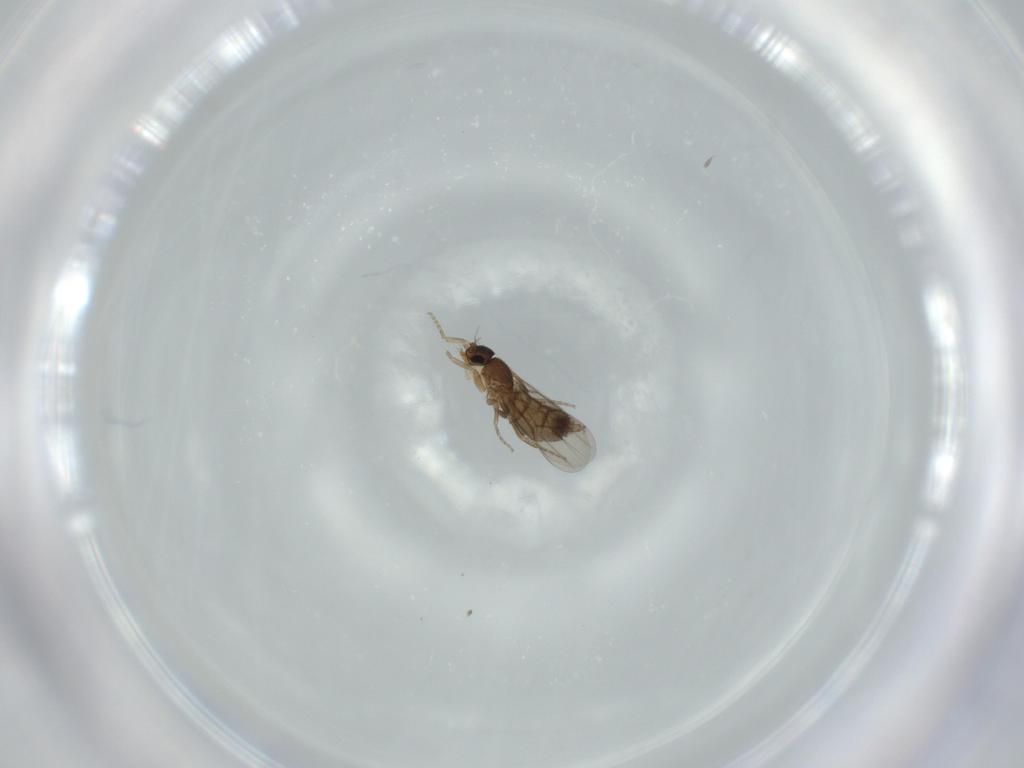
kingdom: Animalia
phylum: Arthropoda
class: Insecta
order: Diptera
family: Phoridae
